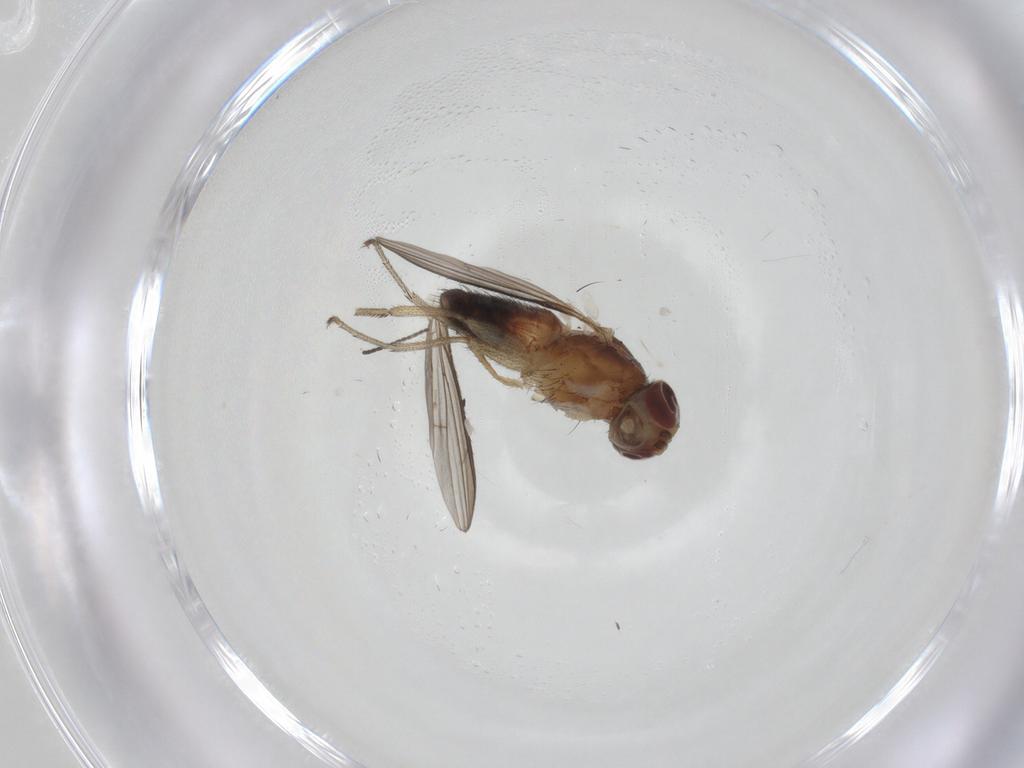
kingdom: Animalia
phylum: Arthropoda
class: Insecta
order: Diptera
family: Heleomyzidae
